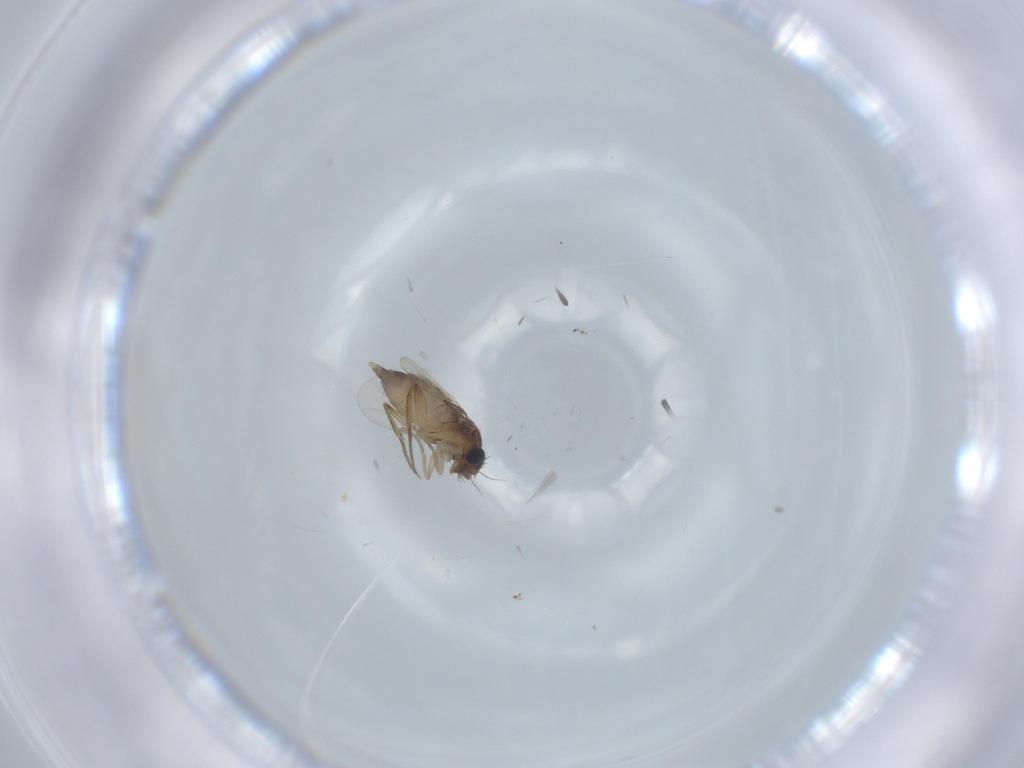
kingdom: Animalia
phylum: Arthropoda
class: Insecta
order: Diptera
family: Phoridae
